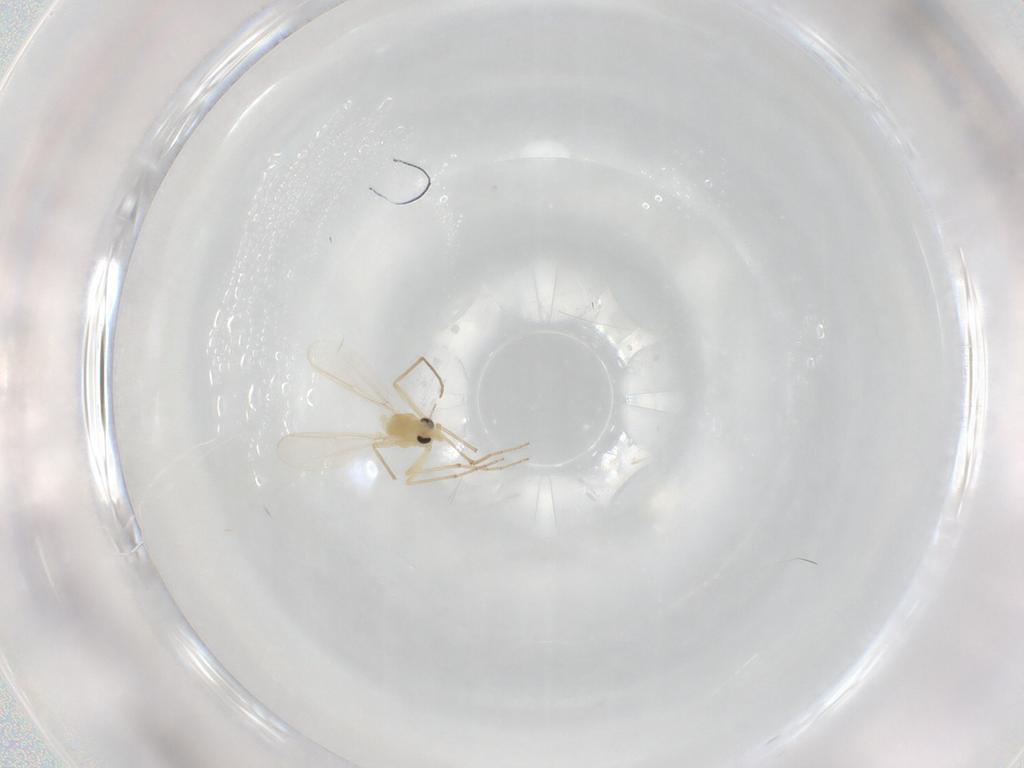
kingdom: Animalia
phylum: Arthropoda
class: Insecta
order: Diptera
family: Chironomidae
